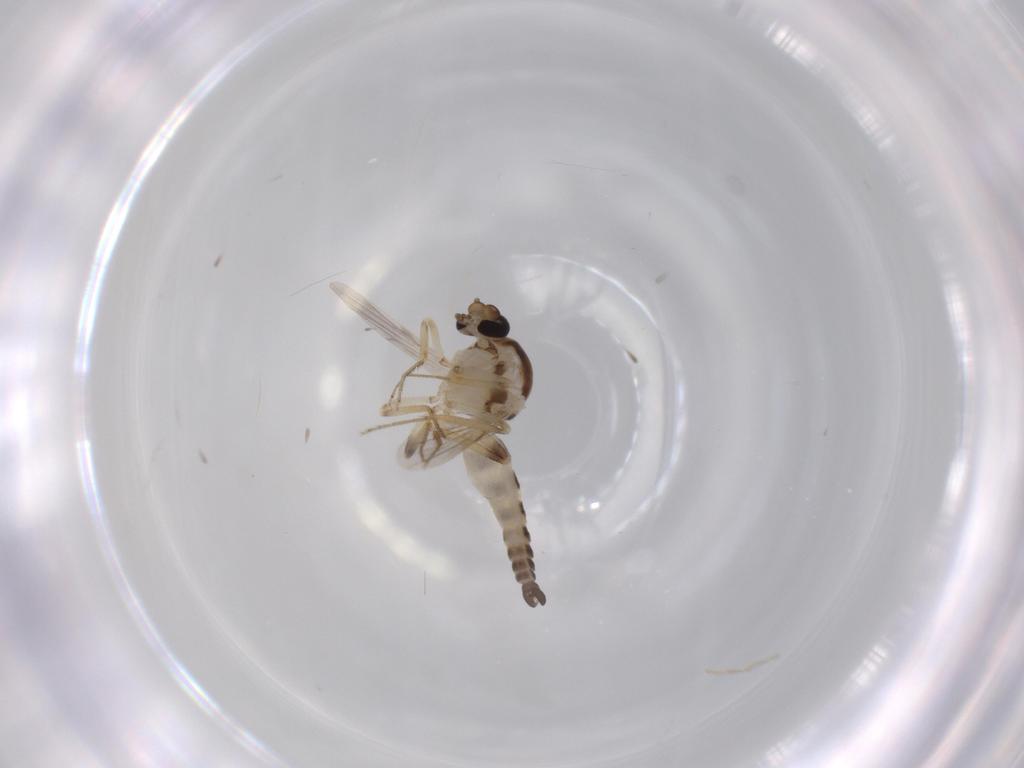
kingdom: Animalia
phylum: Arthropoda
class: Insecta
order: Diptera
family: Ceratopogonidae
